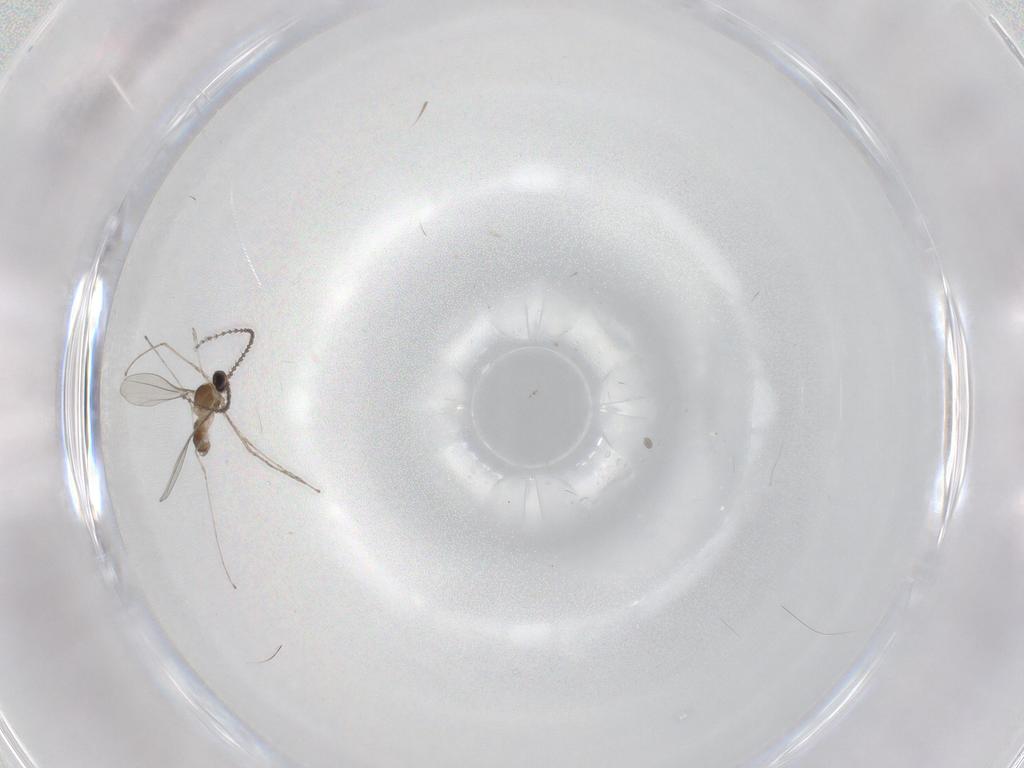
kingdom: Animalia
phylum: Arthropoda
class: Insecta
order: Diptera
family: Cecidomyiidae
